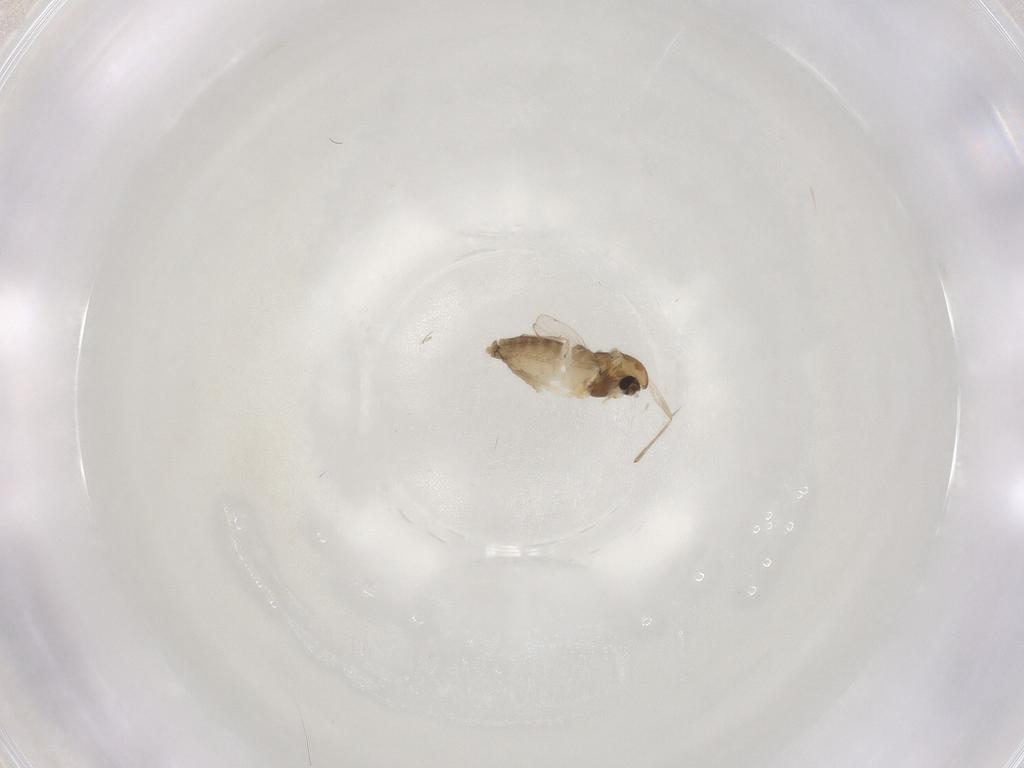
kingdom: Animalia
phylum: Arthropoda
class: Insecta
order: Diptera
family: Chironomidae
